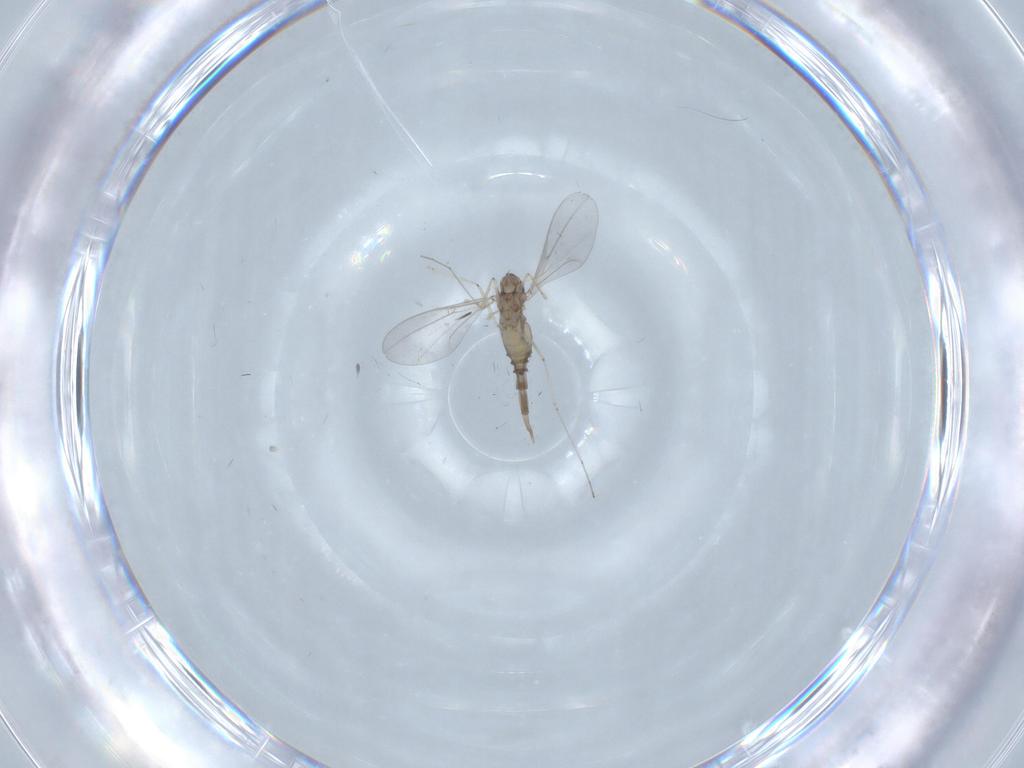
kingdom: Animalia
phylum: Arthropoda
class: Insecta
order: Diptera
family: Cecidomyiidae
